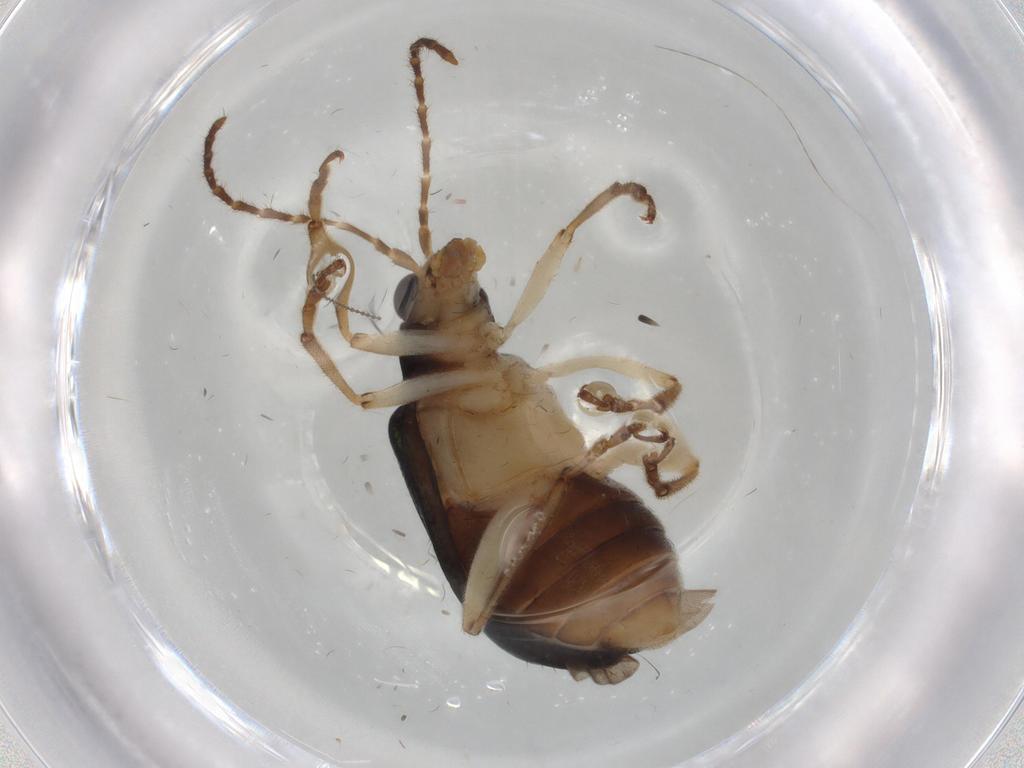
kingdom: Animalia
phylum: Arthropoda
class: Insecta
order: Coleoptera
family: Chrysomelidae
